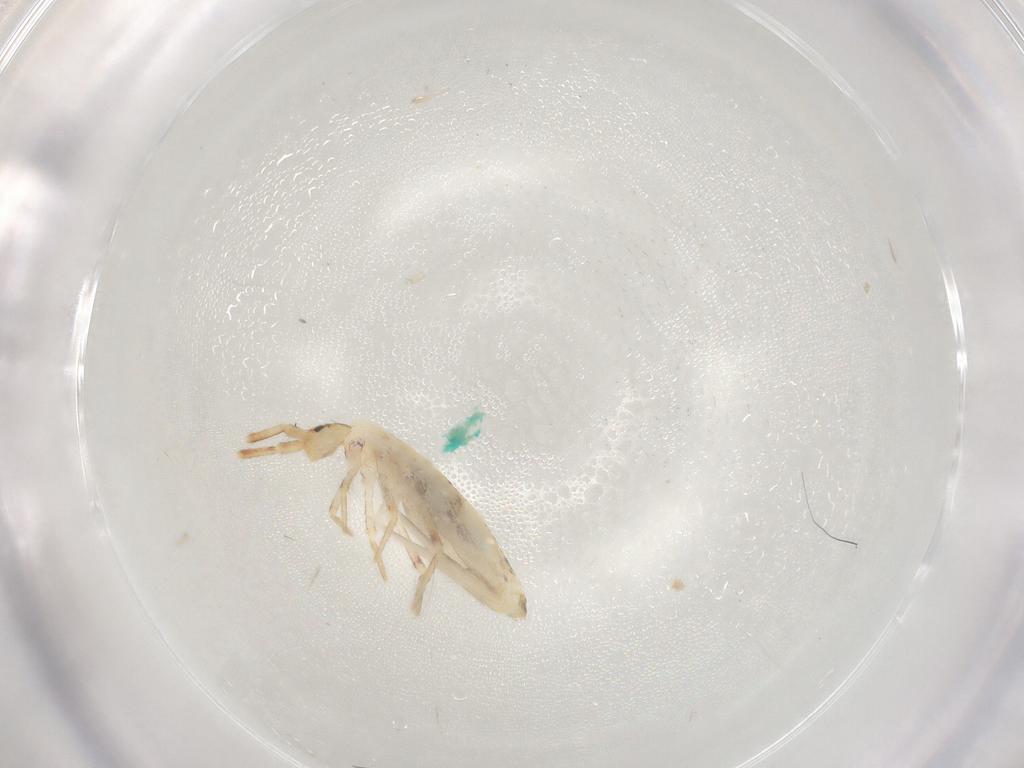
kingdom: Animalia
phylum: Arthropoda
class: Collembola
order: Poduromorpha
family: Hypogastruridae
